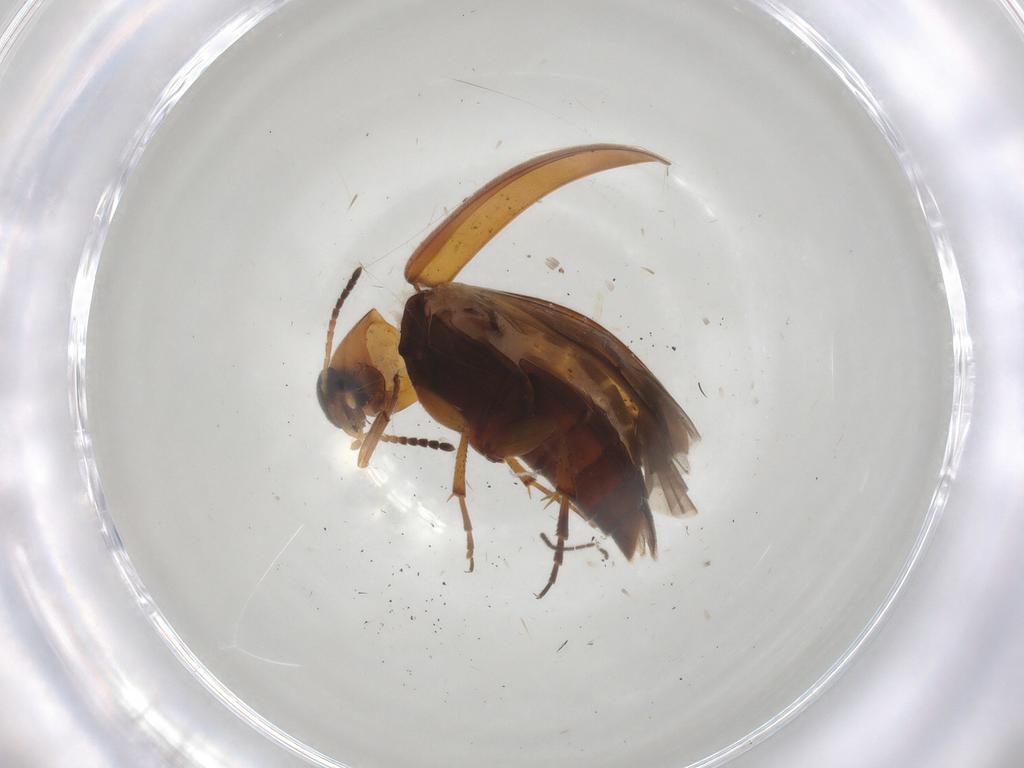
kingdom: Animalia
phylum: Arthropoda
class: Insecta
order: Coleoptera
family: Scraptiidae
